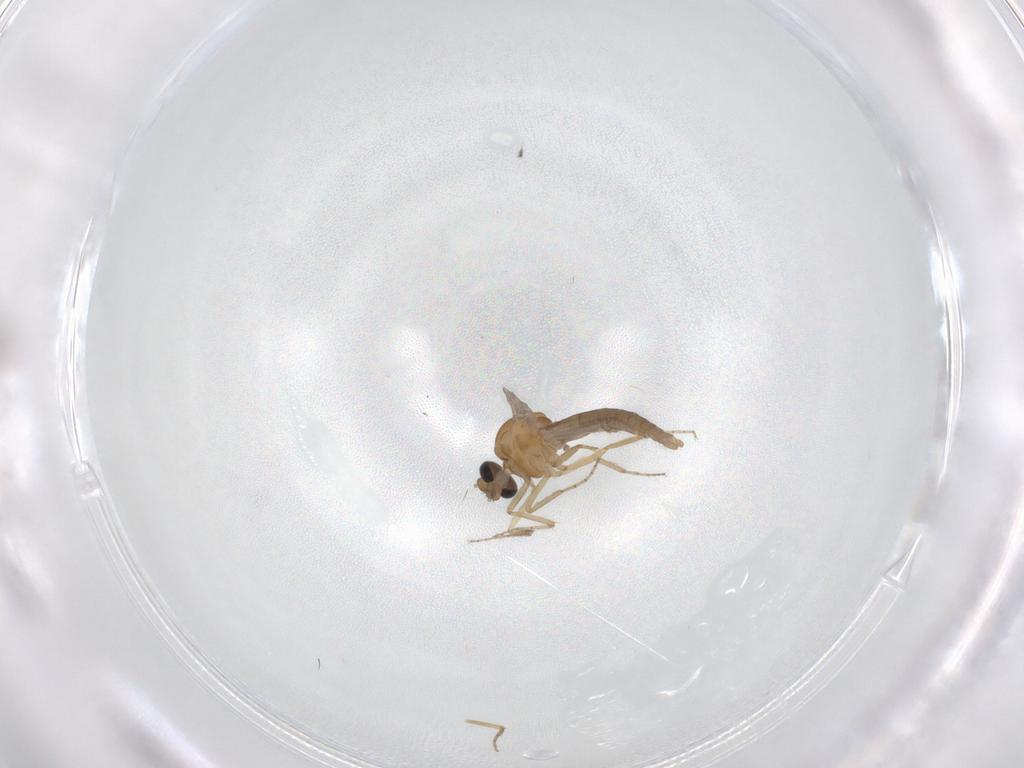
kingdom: Animalia
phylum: Arthropoda
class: Insecta
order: Diptera
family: Ceratopogonidae
